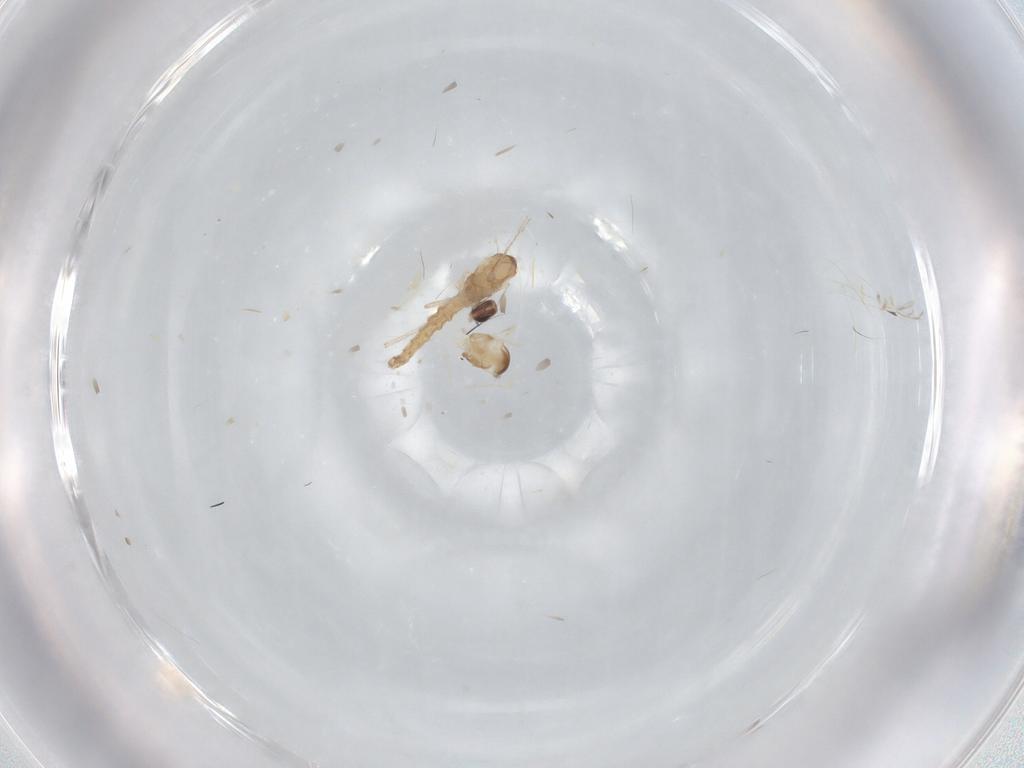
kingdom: Animalia
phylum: Arthropoda
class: Insecta
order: Diptera
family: Cecidomyiidae
